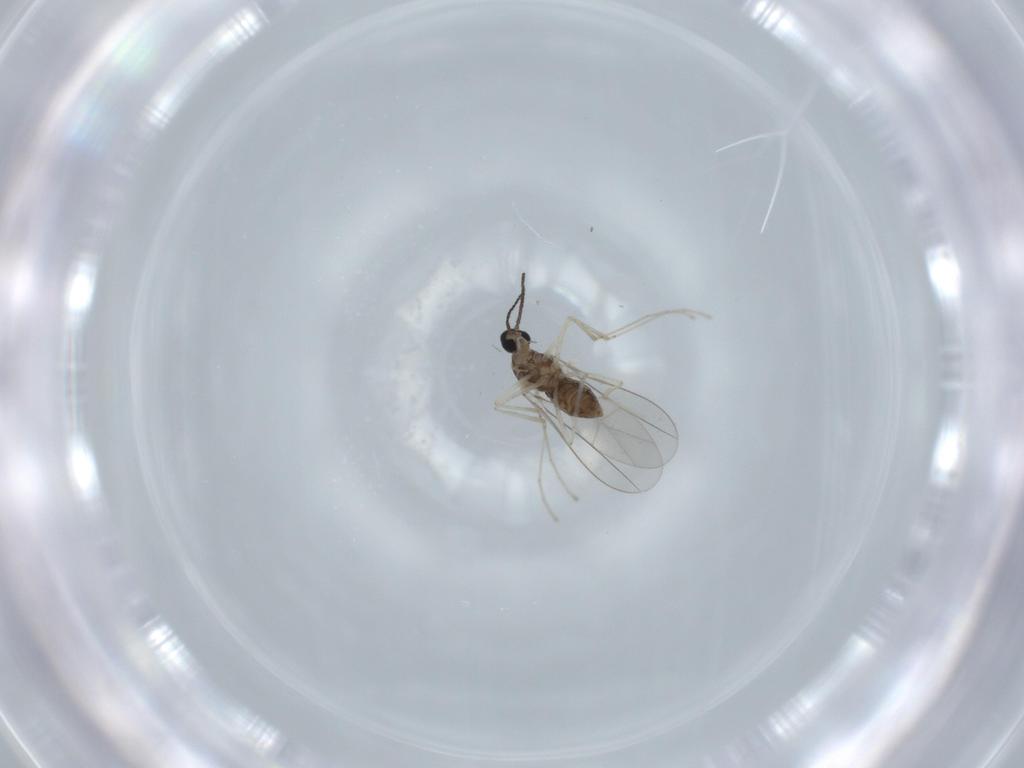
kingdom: Animalia
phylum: Arthropoda
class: Insecta
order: Diptera
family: Cecidomyiidae
